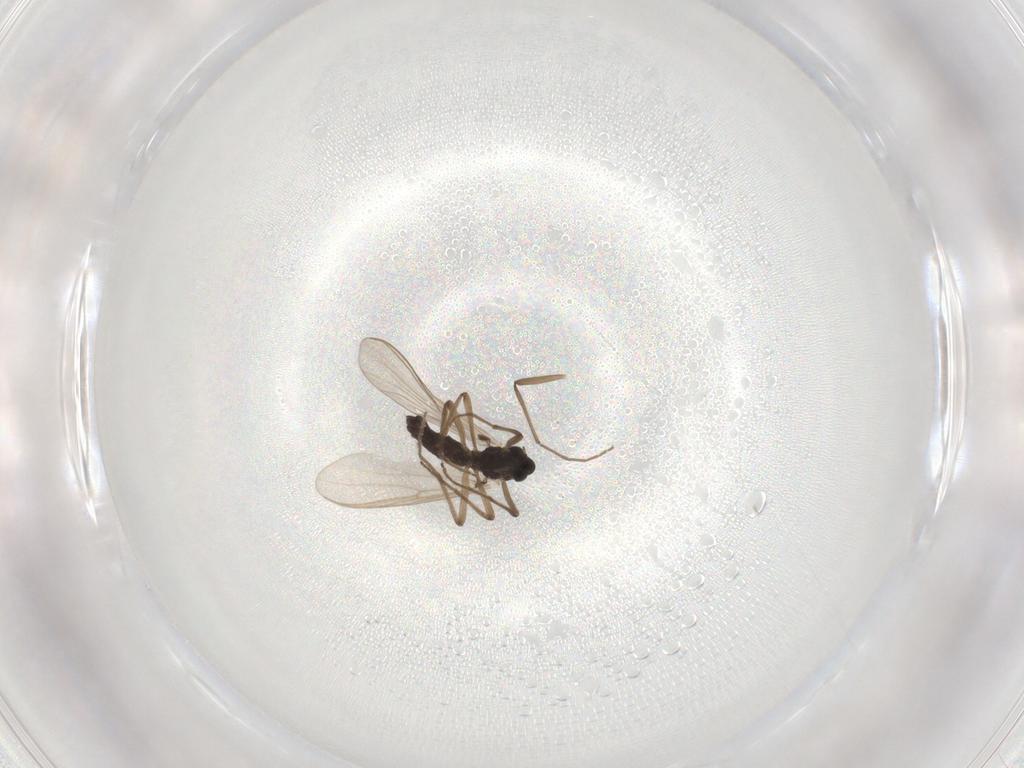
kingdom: Animalia
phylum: Arthropoda
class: Insecta
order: Diptera
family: Chironomidae
